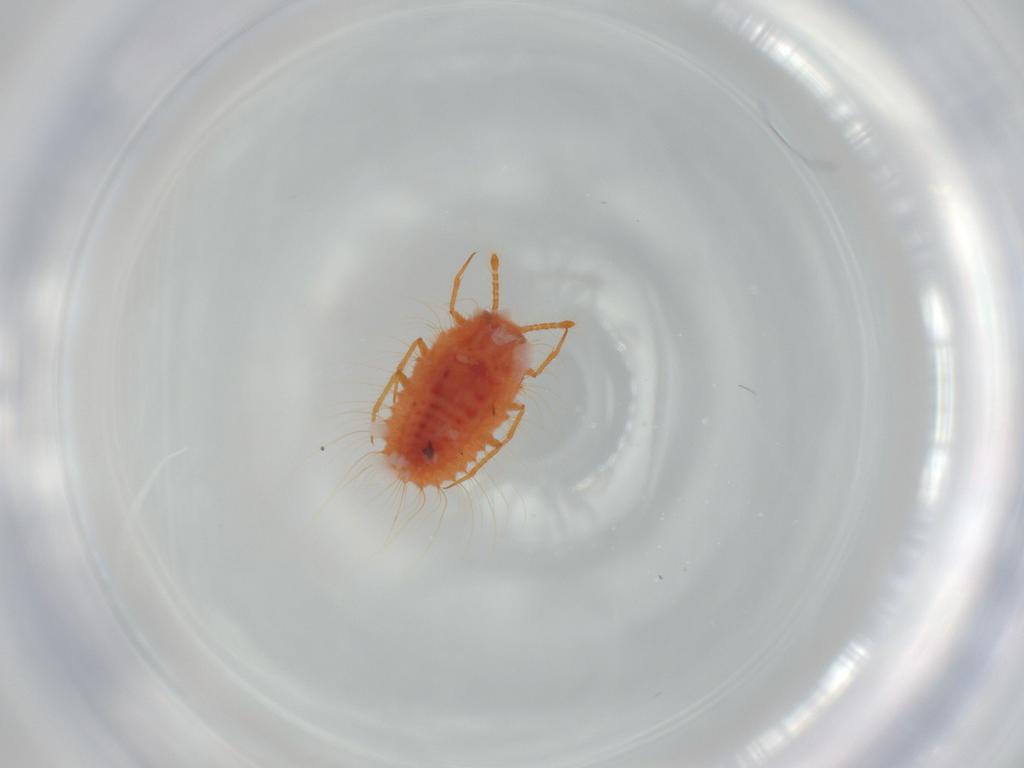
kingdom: Animalia
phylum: Arthropoda
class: Insecta
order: Hemiptera
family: Coccoidea_incertae_sedis
